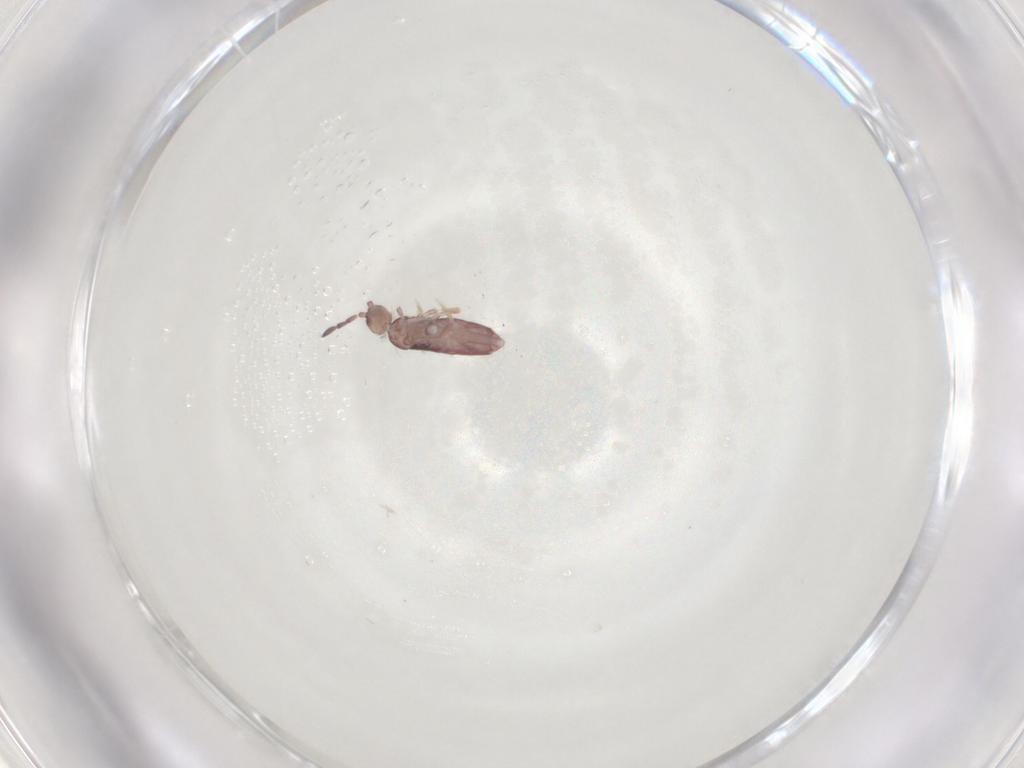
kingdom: Animalia
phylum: Arthropoda
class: Collembola
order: Entomobryomorpha
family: Entomobryidae
